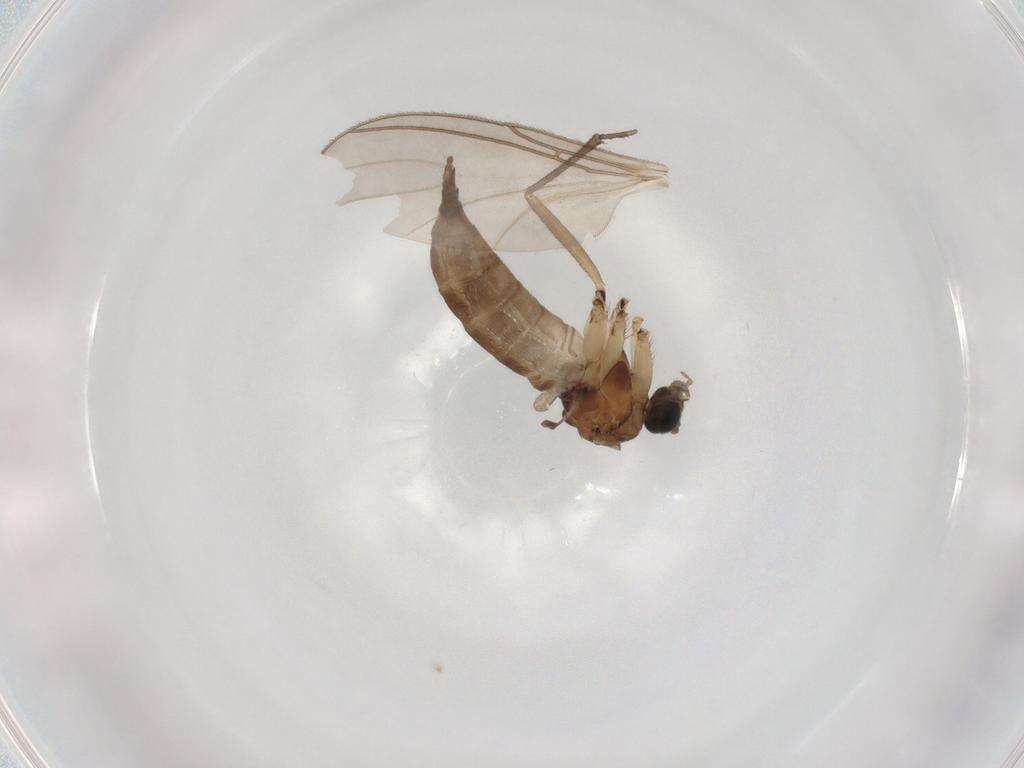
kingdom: Animalia
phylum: Arthropoda
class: Insecta
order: Diptera
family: Sciaridae
